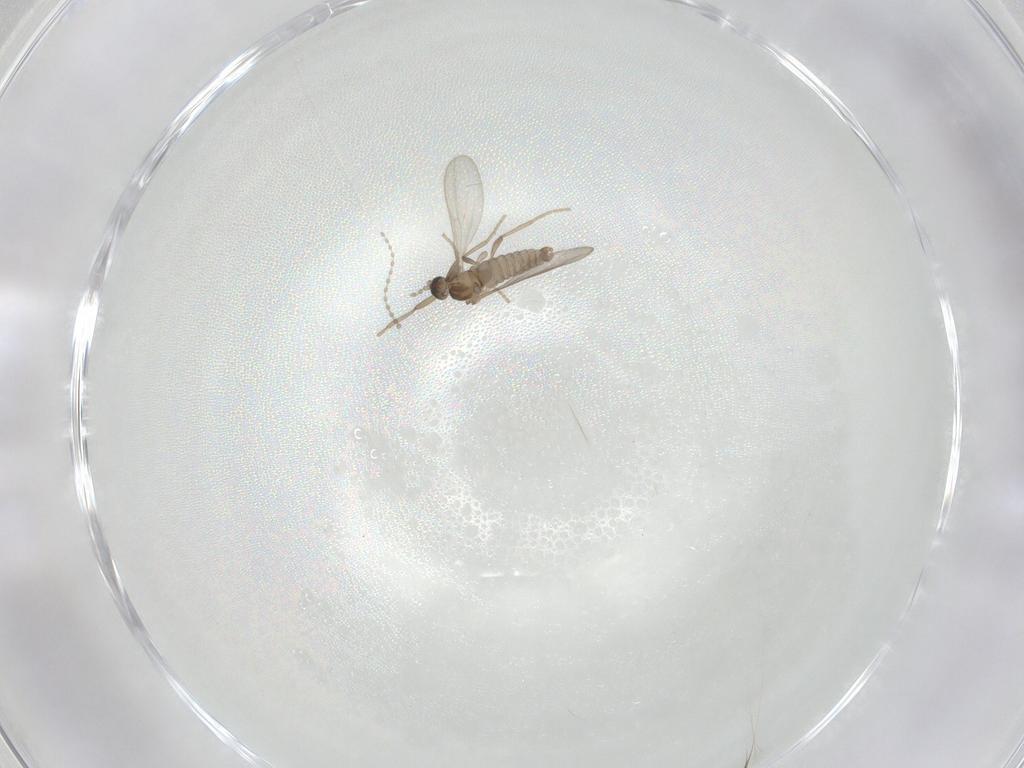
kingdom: Animalia
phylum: Arthropoda
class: Insecta
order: Diptera
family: Cecidomyiidae
